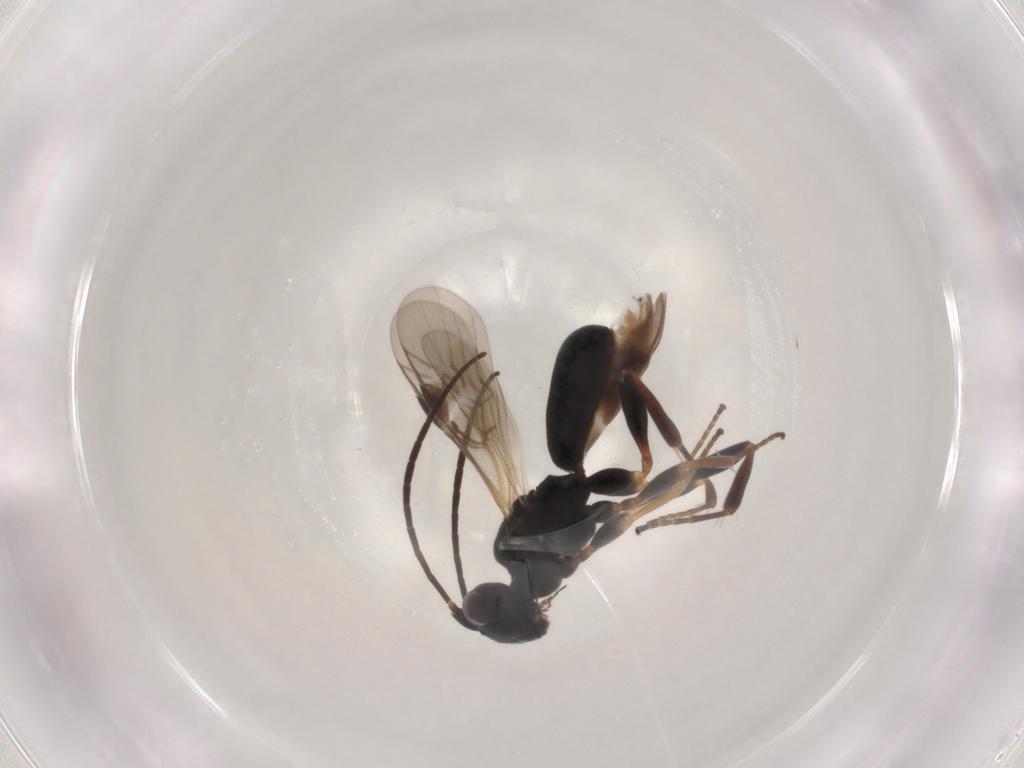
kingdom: Animalia
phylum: Arthropoda
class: Insecta
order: Hymenoptera
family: Braconidae
